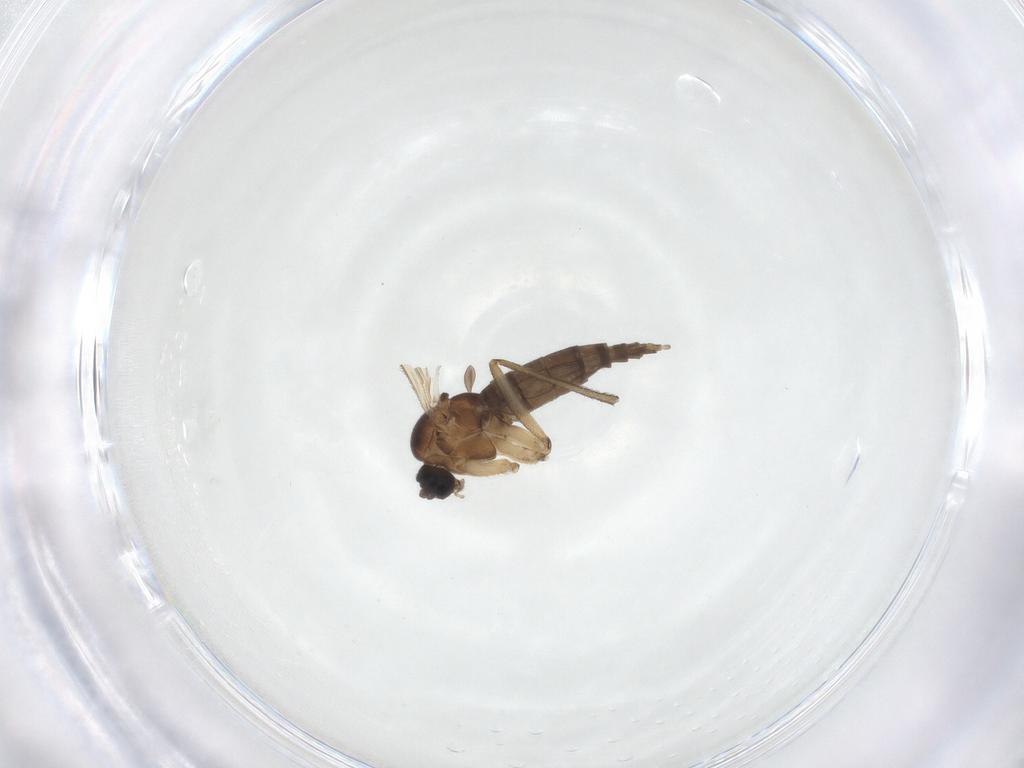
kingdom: Animalia
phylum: Arthropoda
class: Insecta
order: Diptera
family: Sciaridae
